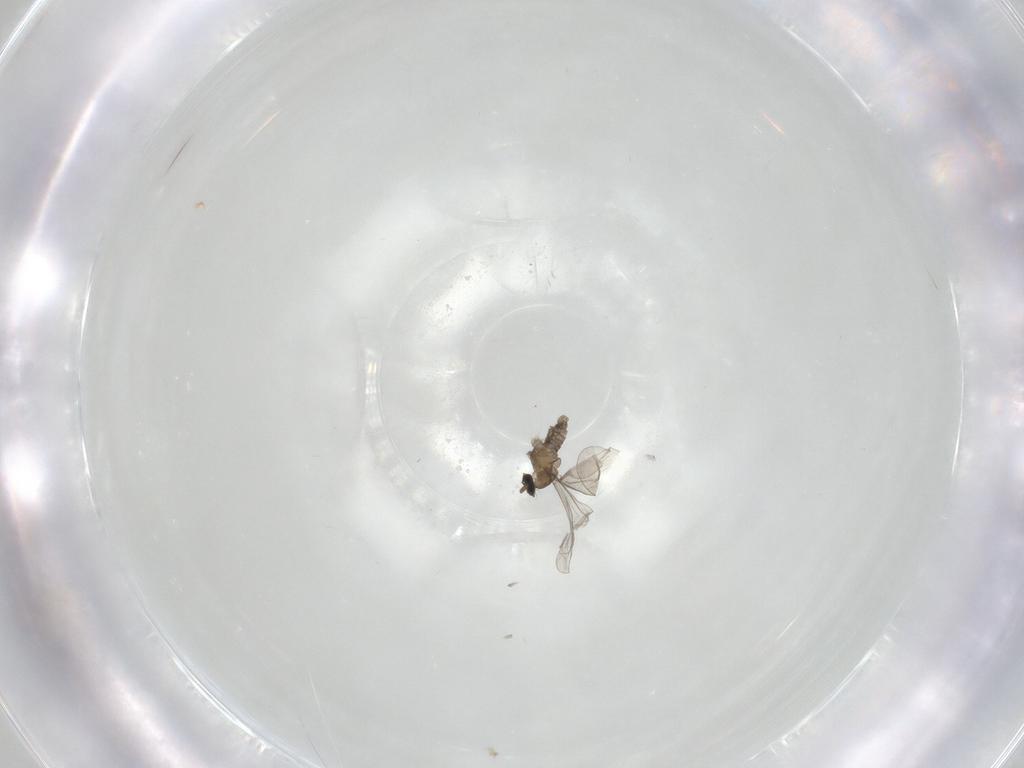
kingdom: Animalia
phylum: Arthropoda
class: Insecta
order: Diptera
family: Cecidomyiidae
